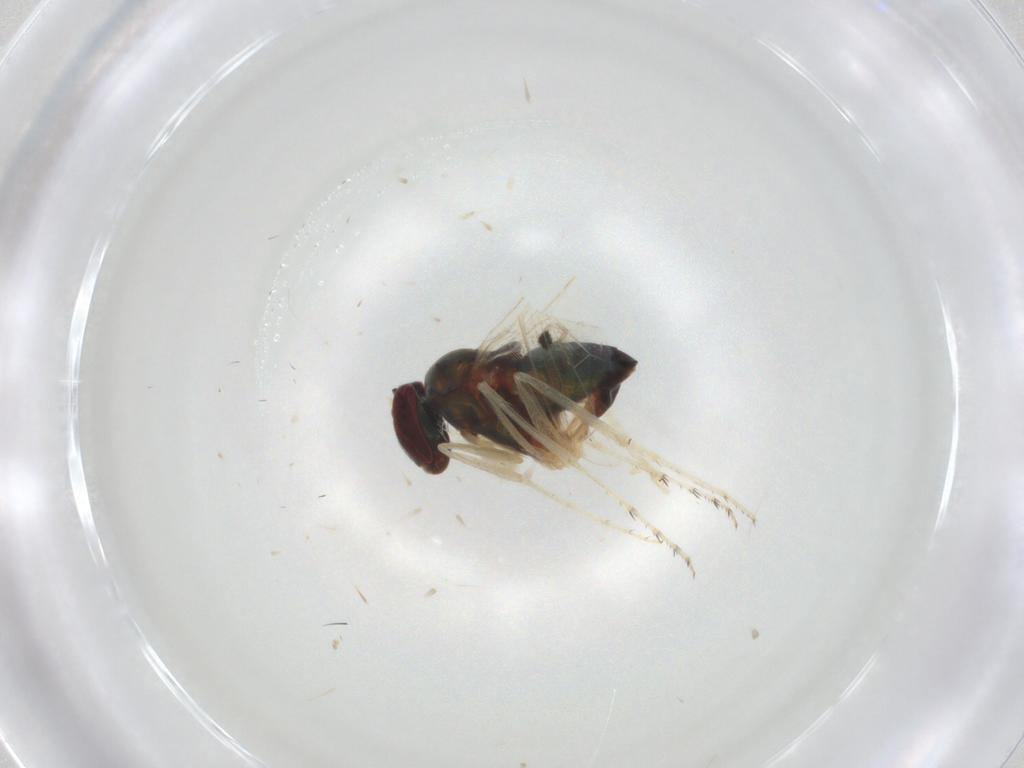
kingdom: Animalia
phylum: Arthropoda
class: Insecta
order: Diptera
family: Dolichopodidae
